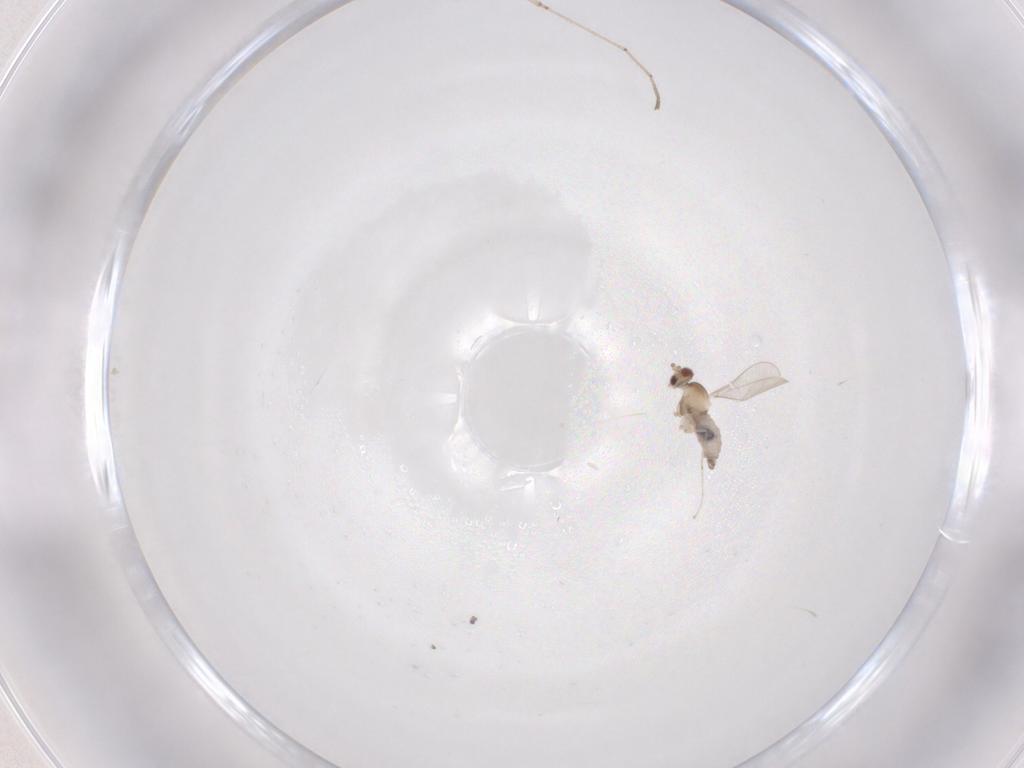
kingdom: Animalia
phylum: Arthropoda
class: Insecta
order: Diptera
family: Cecidomyiidae
